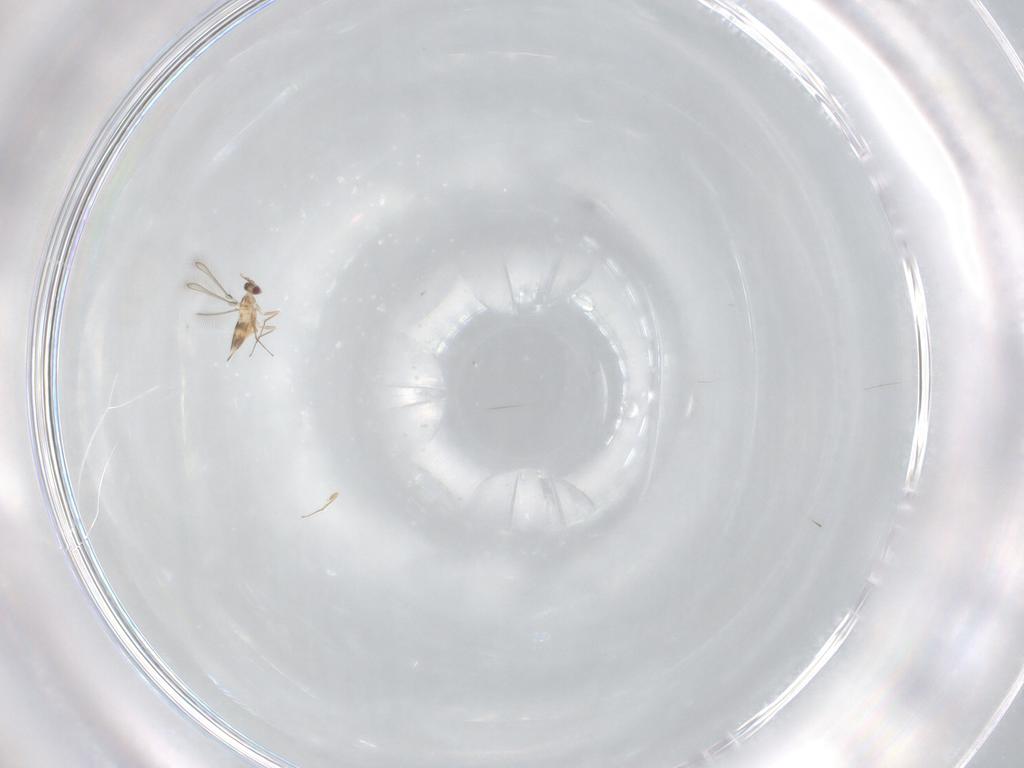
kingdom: Animalia
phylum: Arthropoda
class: Insecta
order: Hymenoptera
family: Mymaridae
